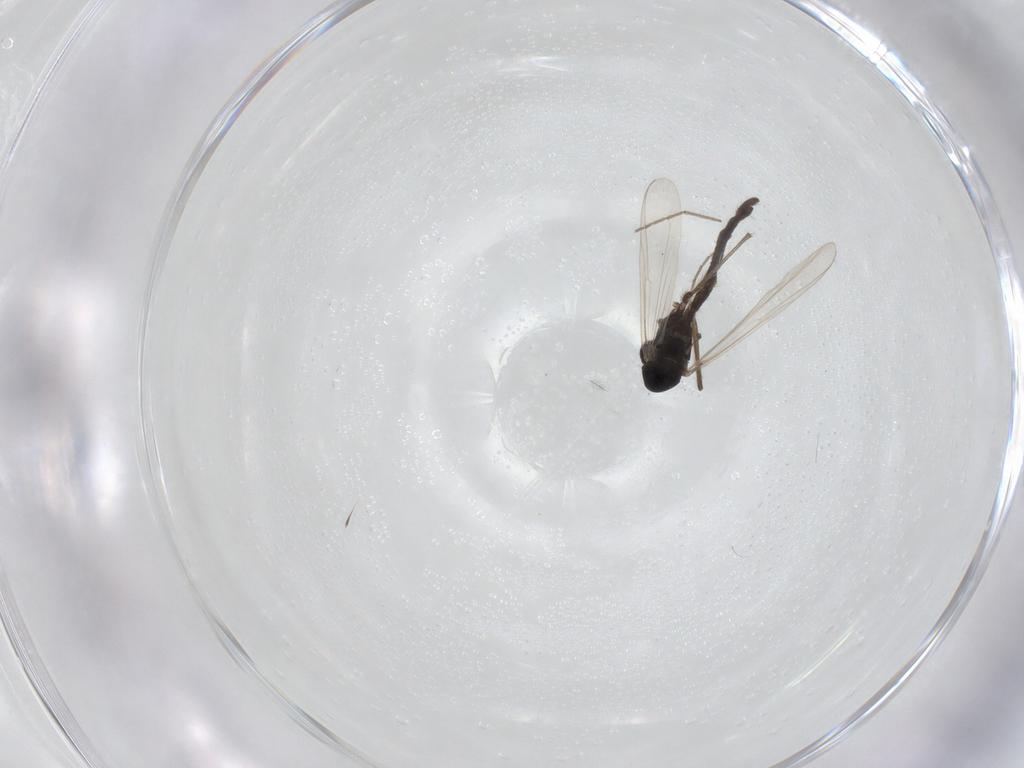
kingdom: Animalia
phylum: Arthropoda
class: Insecta
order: Diptera
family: Chironomidae
